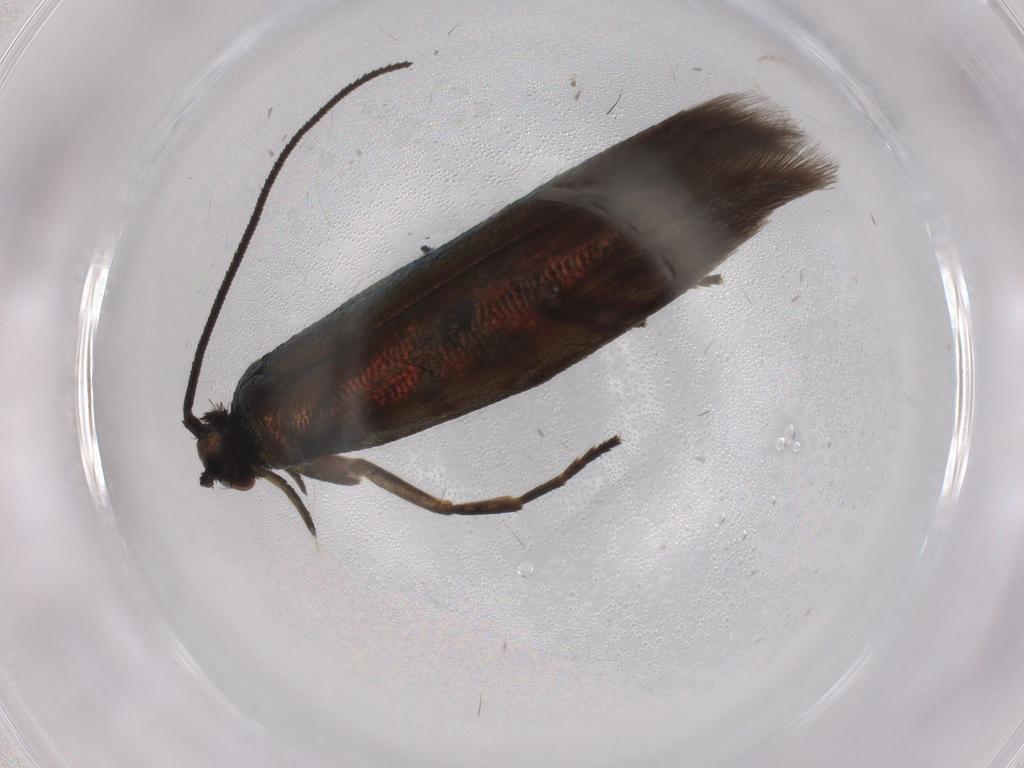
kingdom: Animalia
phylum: Arthropoda
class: Insecta
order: Lepidoptera
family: Argyresthiidae
